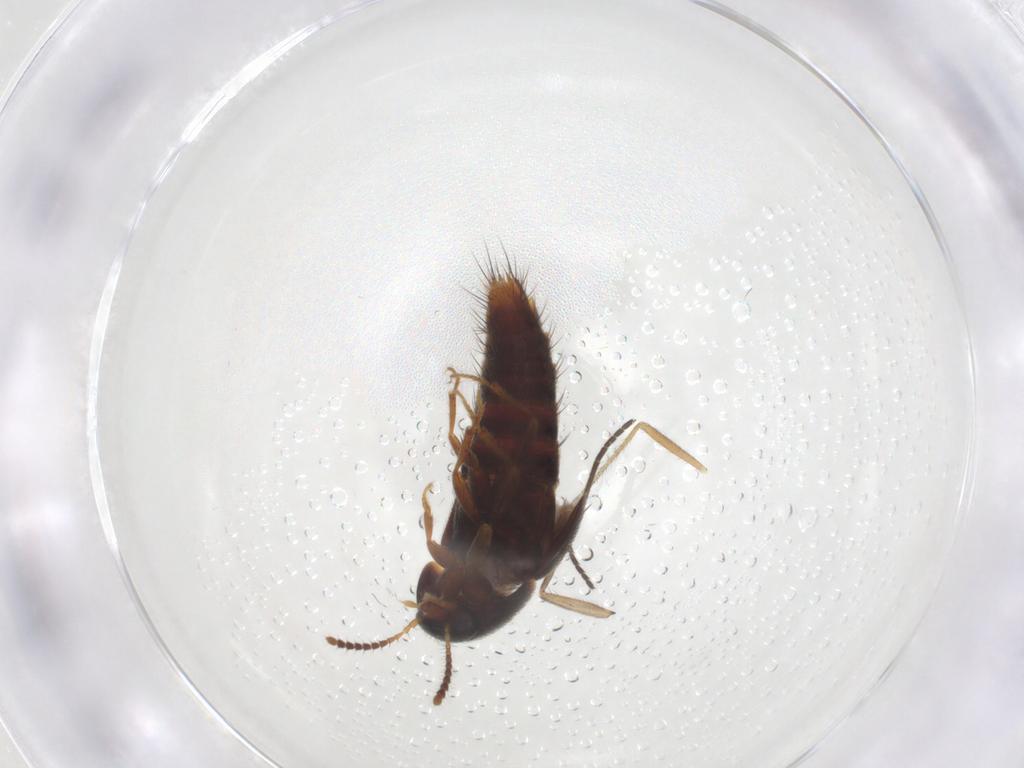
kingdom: Animalia
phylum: Arthropoda
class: Insecta
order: Coleoptera
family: Staphylinidae
